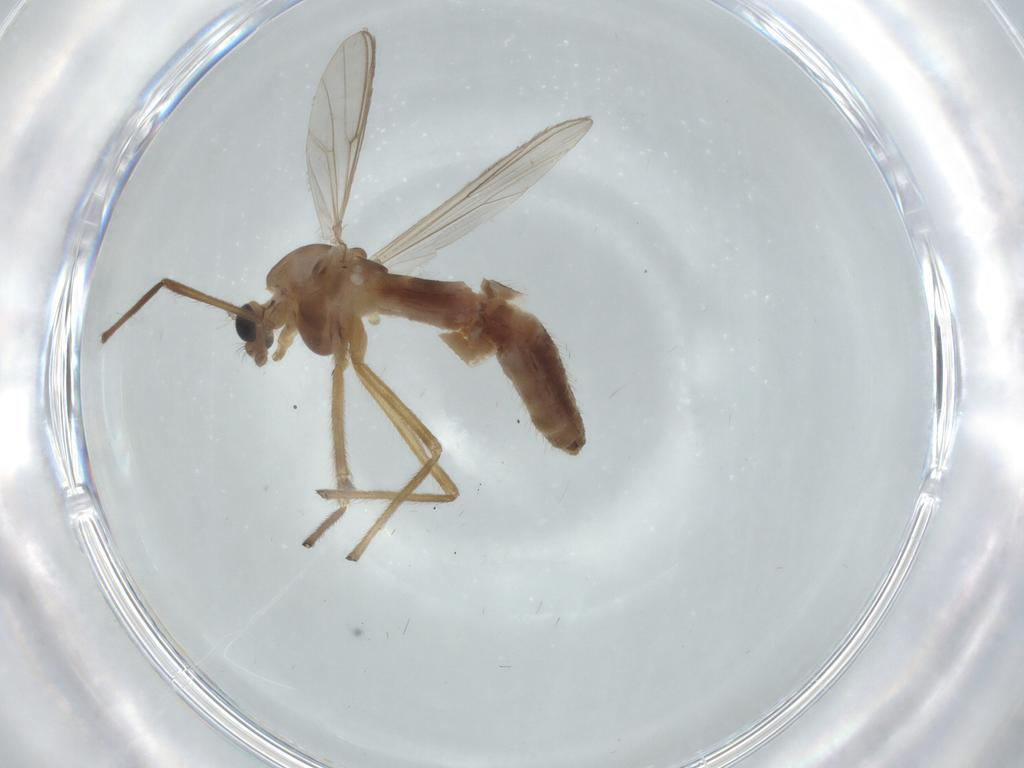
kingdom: Animalia
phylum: Arthropoda
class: Insecta
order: Diptera
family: Chironomidae
